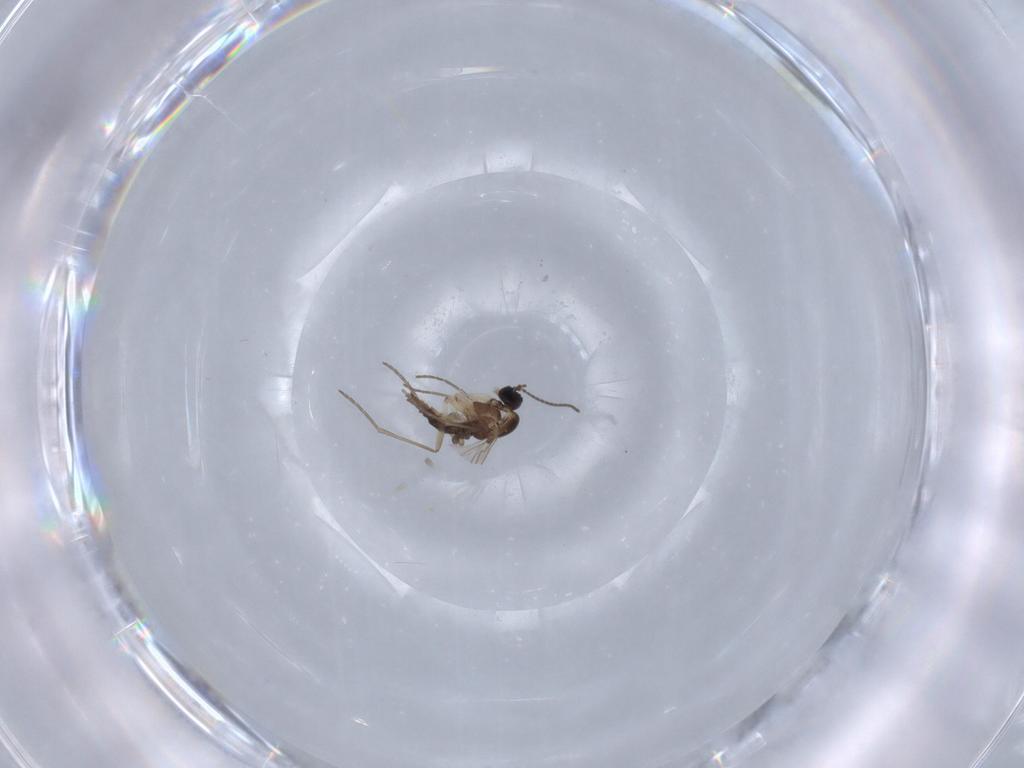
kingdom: Animalia
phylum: Arthropoda
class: Insecta
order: Diptera
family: Sciaridae
